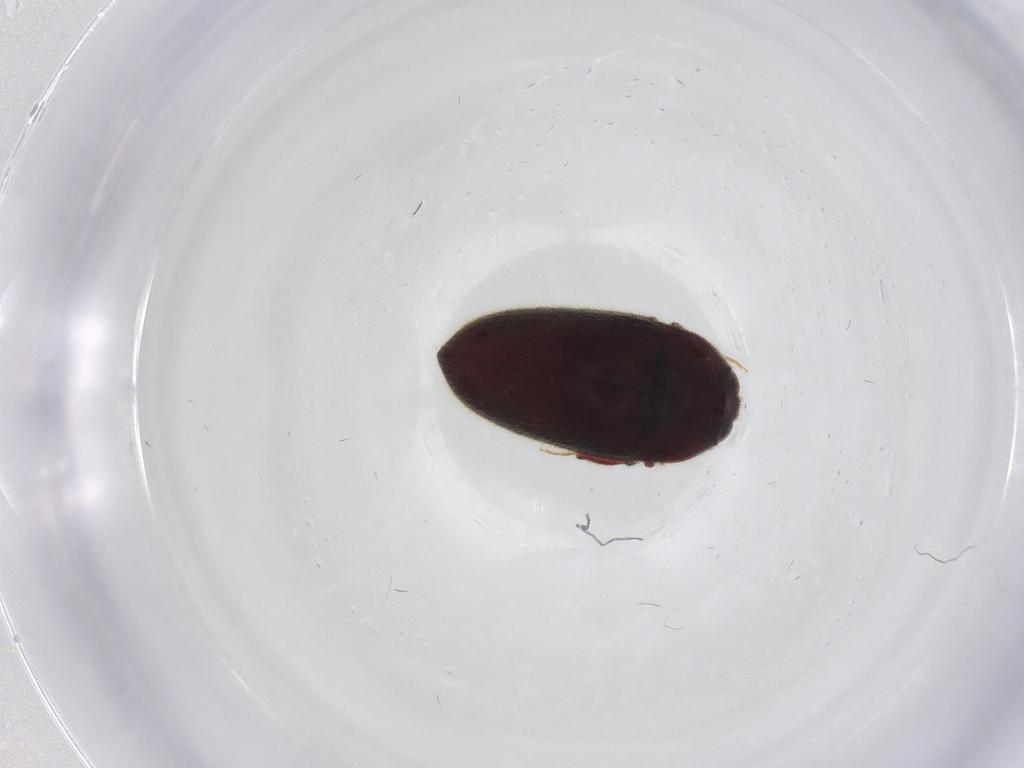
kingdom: Animalia
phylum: Arthropoda
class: Insecta
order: Coleoptera
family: Throscidae
